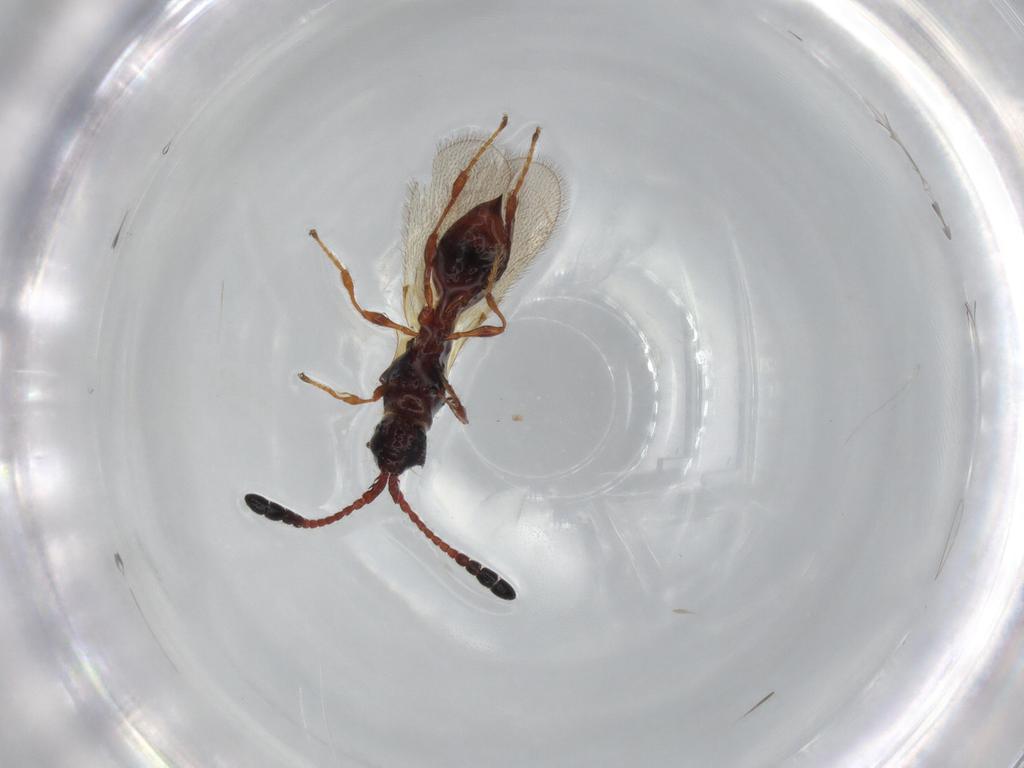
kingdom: Animalia
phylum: Arthropoda
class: Insecta
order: Hymenoptera
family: Diapriidae
